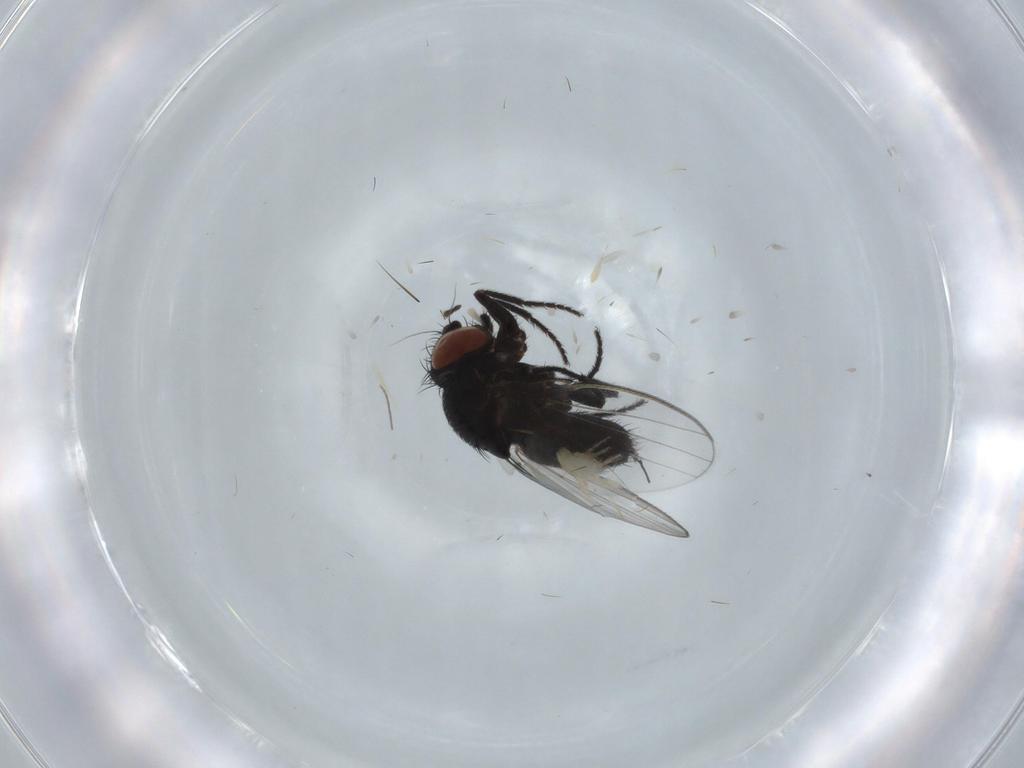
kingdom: Animalia
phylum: Arthropoda
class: Insecta
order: Diptera
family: Milichiidae
